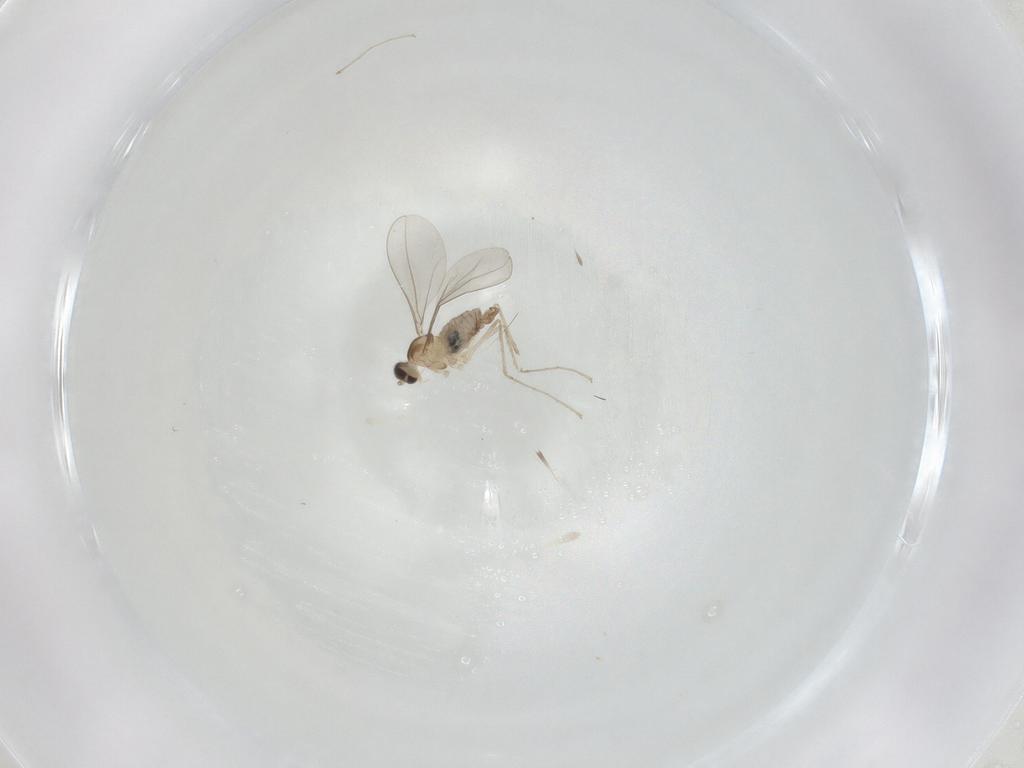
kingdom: Animalia
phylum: Arthropoda
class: Insecta
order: Diptera
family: Cecidomyiidae
